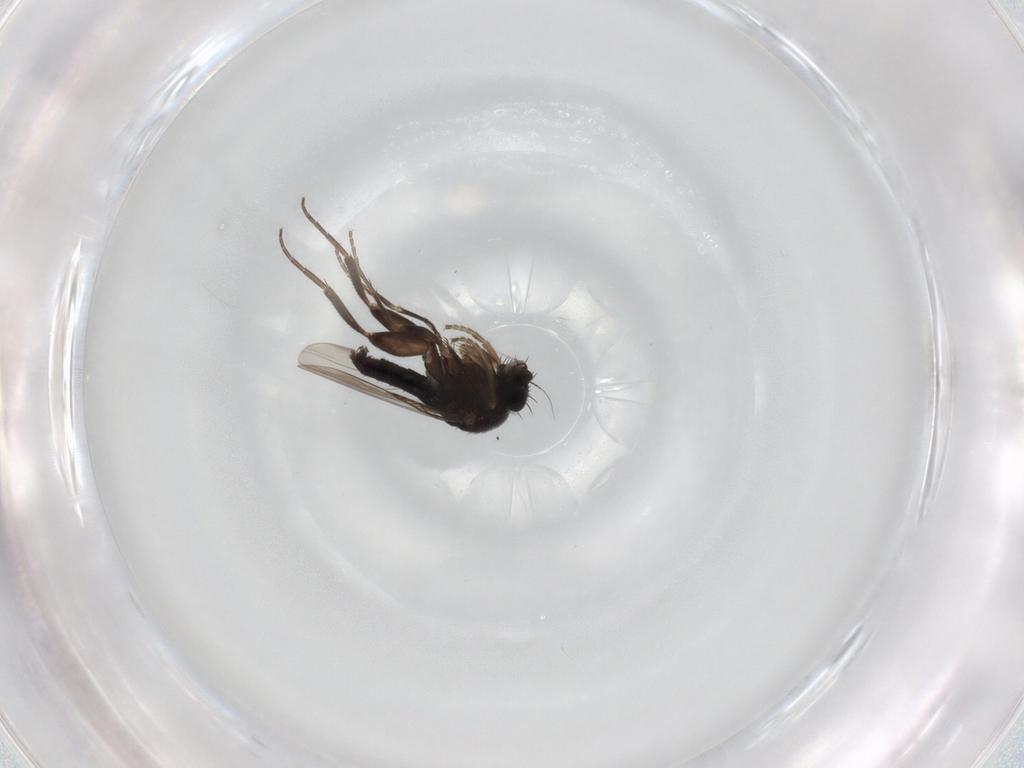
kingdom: Animalia
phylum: Arthropoda
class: Insecta
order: Diptera
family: Phoridae
